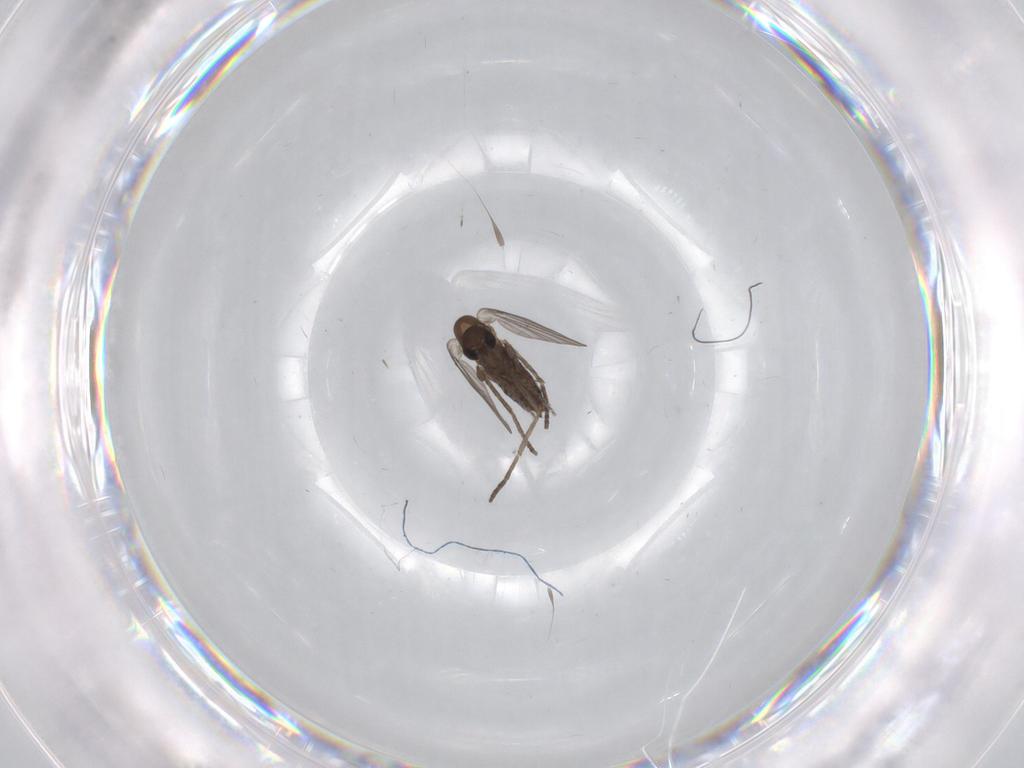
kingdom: Animalia
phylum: Arthropoda
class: Insecta
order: Diptera
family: Psychodidae
